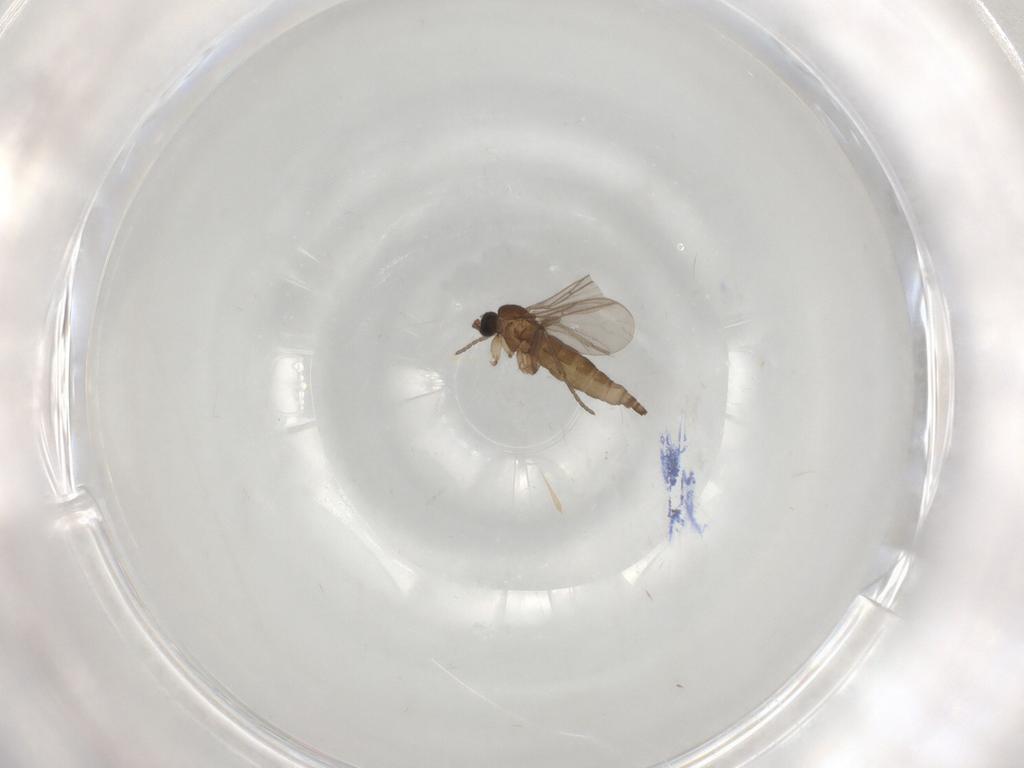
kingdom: Animalia
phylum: Arthropoda
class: Insecta
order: Diptera
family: Sciaridae
